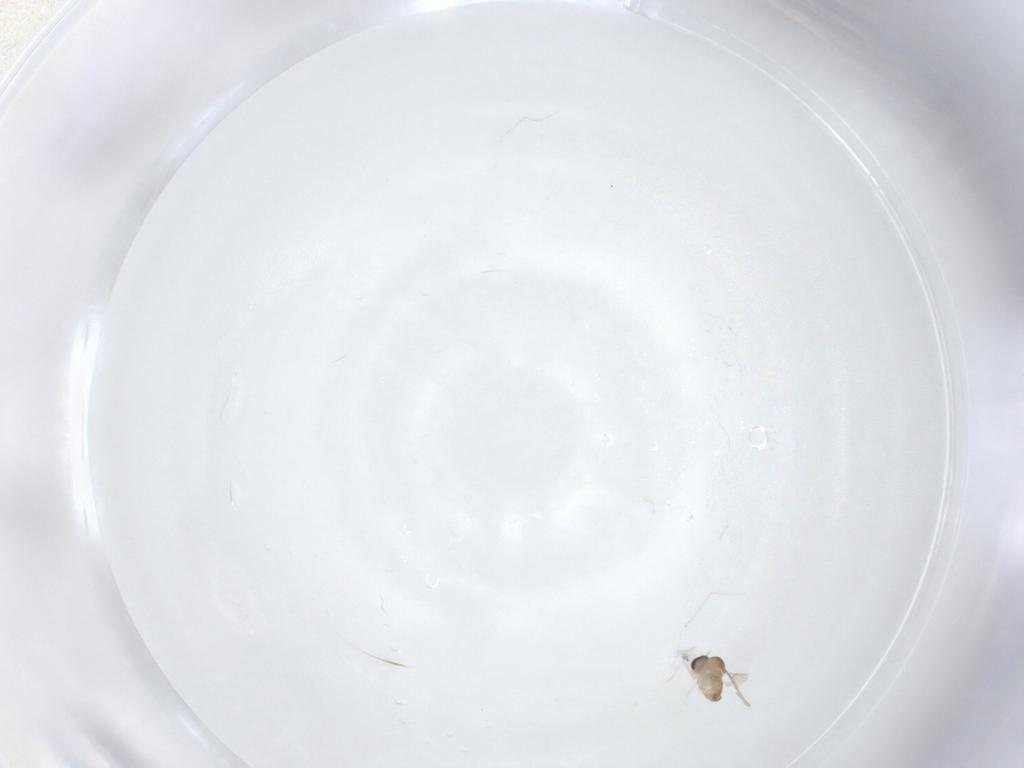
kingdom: Animalia
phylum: Arthropoda
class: Insecta
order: Diptera
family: Cecidomyiidae
